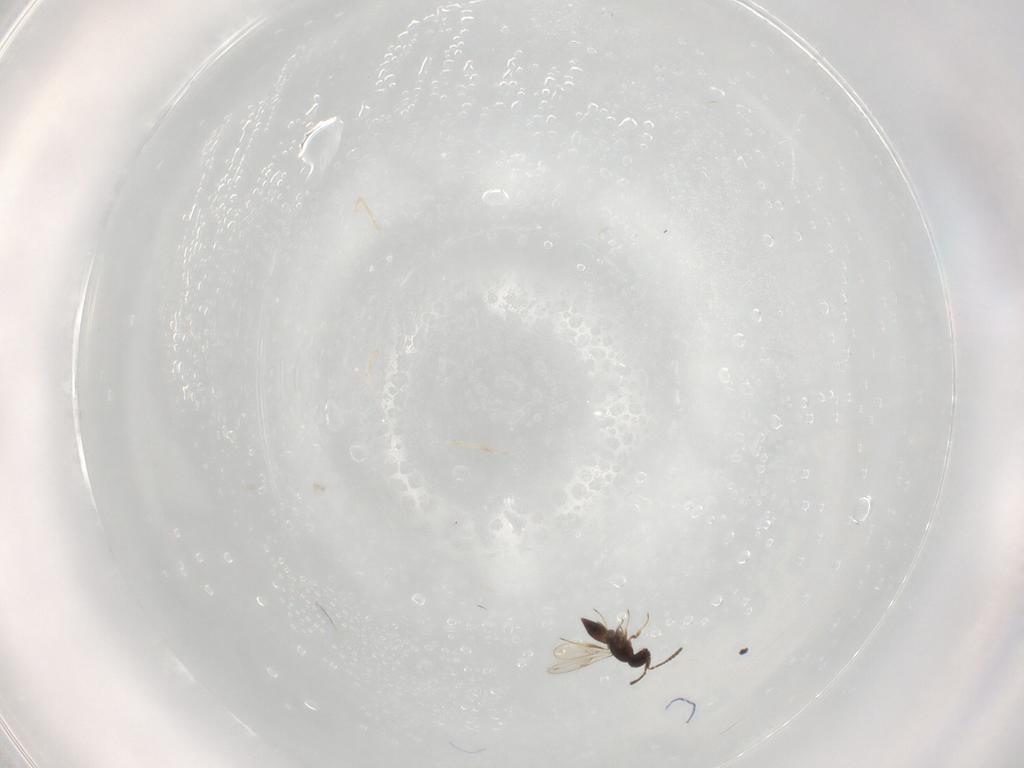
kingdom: Animalia
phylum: Arthropoda
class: Insecta
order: Hymenoptera
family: Scelionidae
